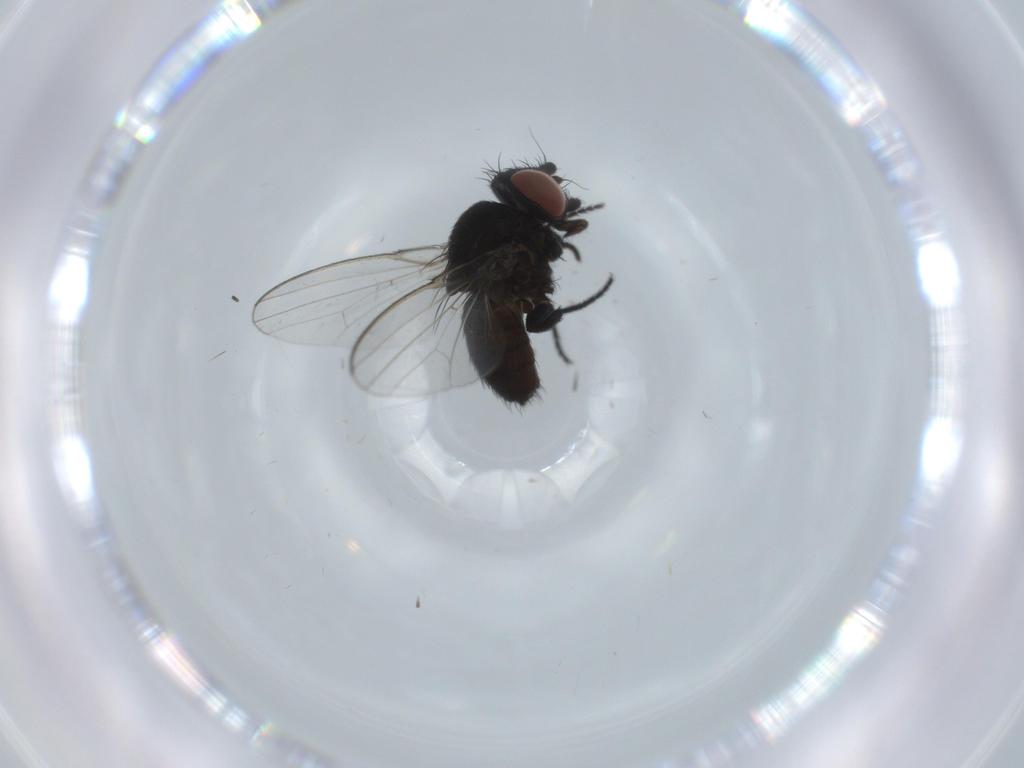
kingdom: Animalia
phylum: Arthropoda
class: Insecta
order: Diptera
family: Milichiidae
